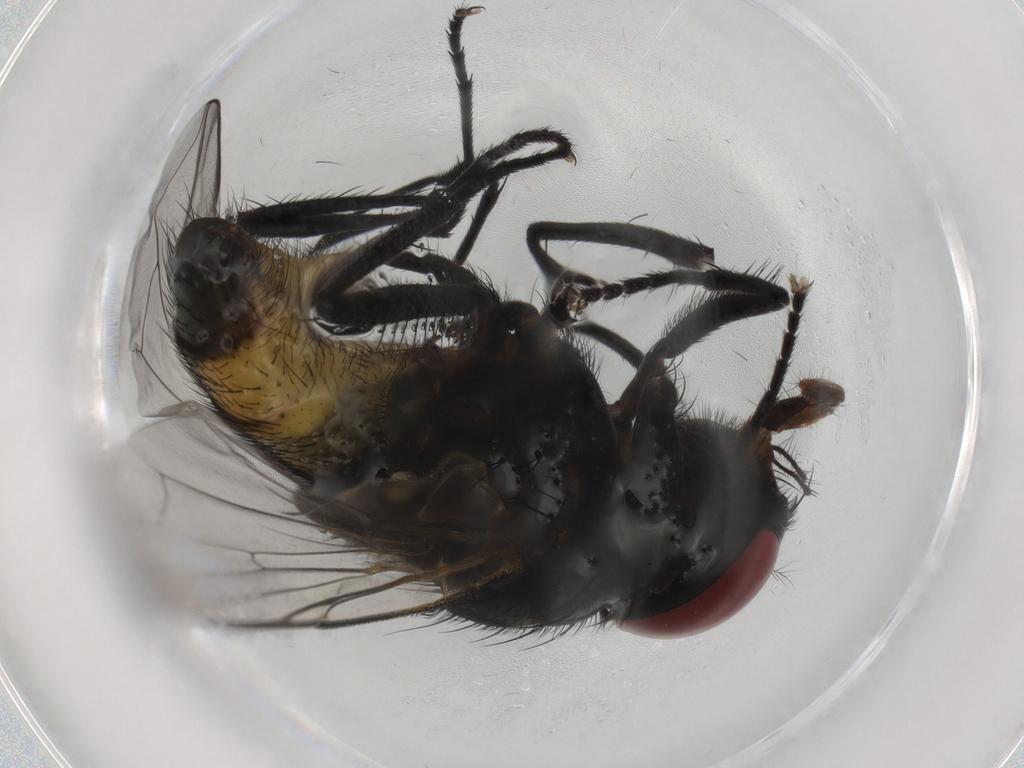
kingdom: Animalia
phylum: Arthropoda
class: Insecta
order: Diptera
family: Muscidae
